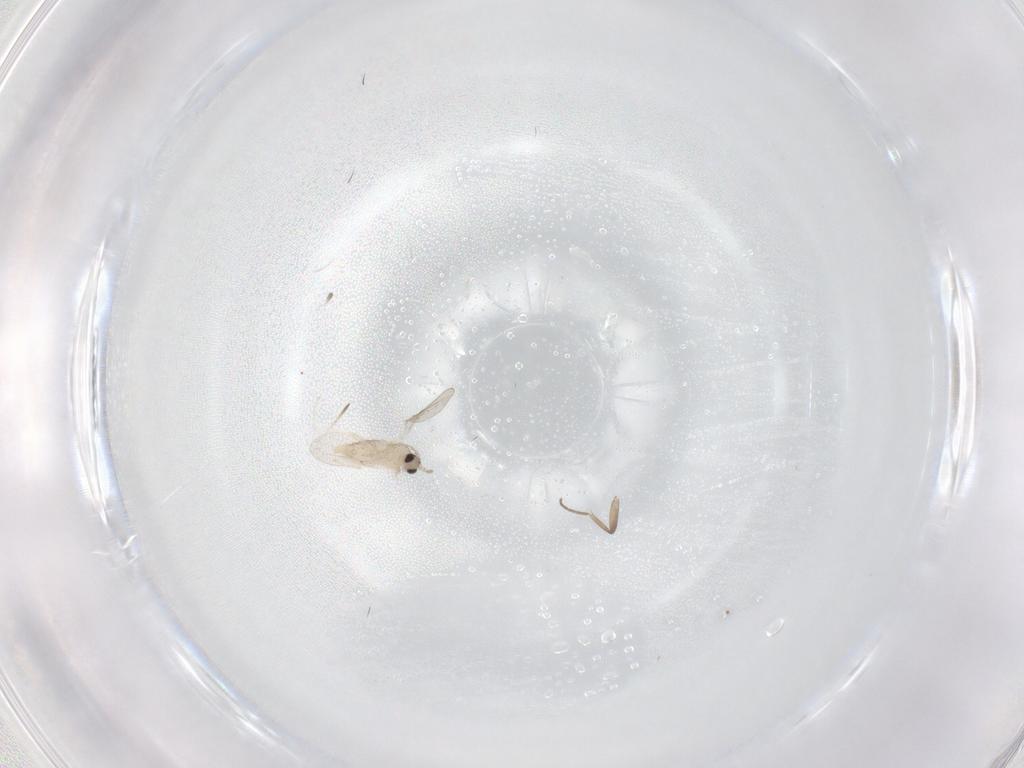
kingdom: Animalia
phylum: Arthropoda
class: Insecta
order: Diptera
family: Cecidomyiidae
